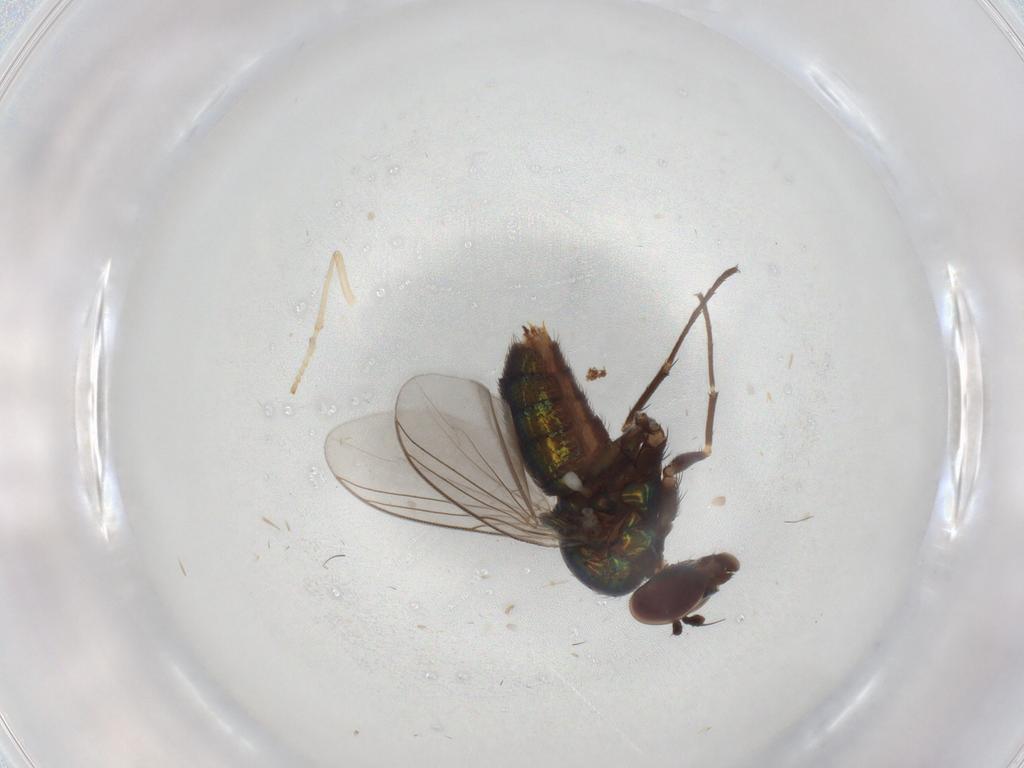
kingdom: Animalia
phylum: Arthropoda
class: Insecta
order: Diptera
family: Dolichopodidae
